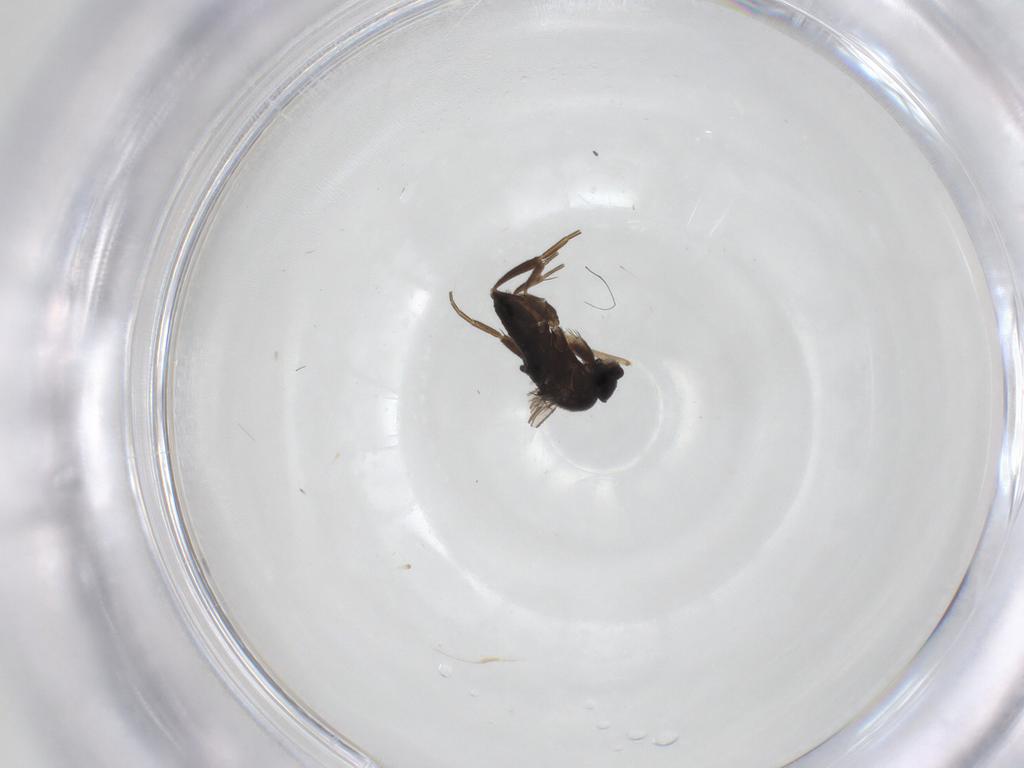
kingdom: Animalia
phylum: Arthropoda
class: Insecta
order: Diptera
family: Phoridae
